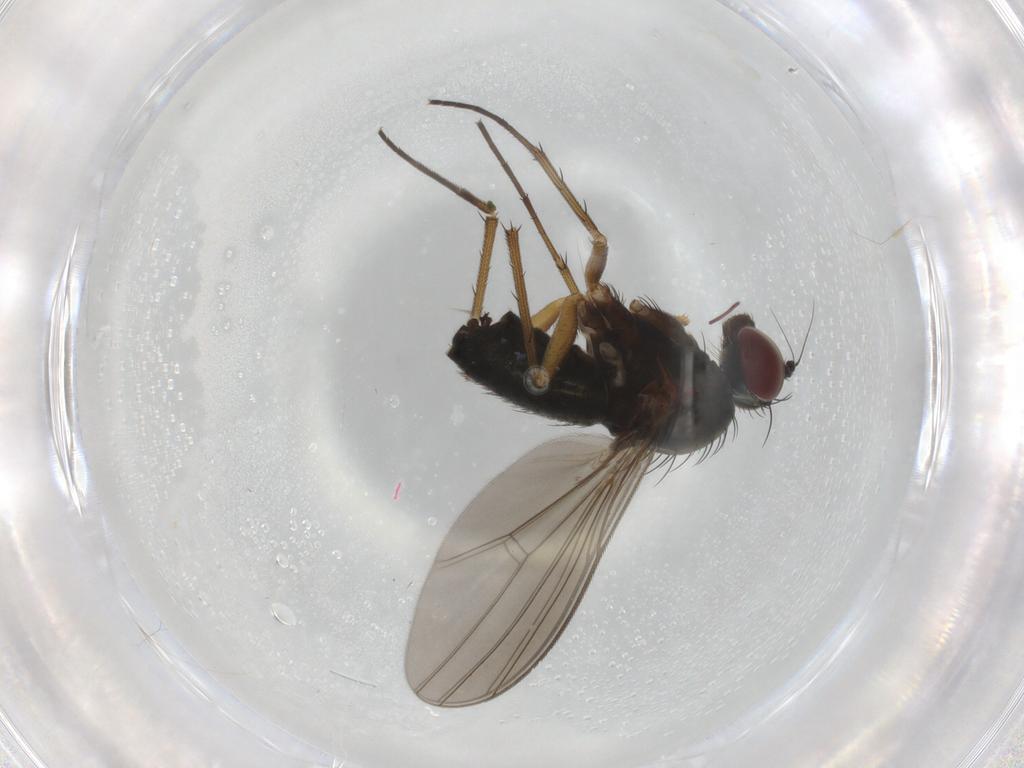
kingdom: Animalia
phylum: Arthropoda
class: Insecta
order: Diptera
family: Dolichopodidae
